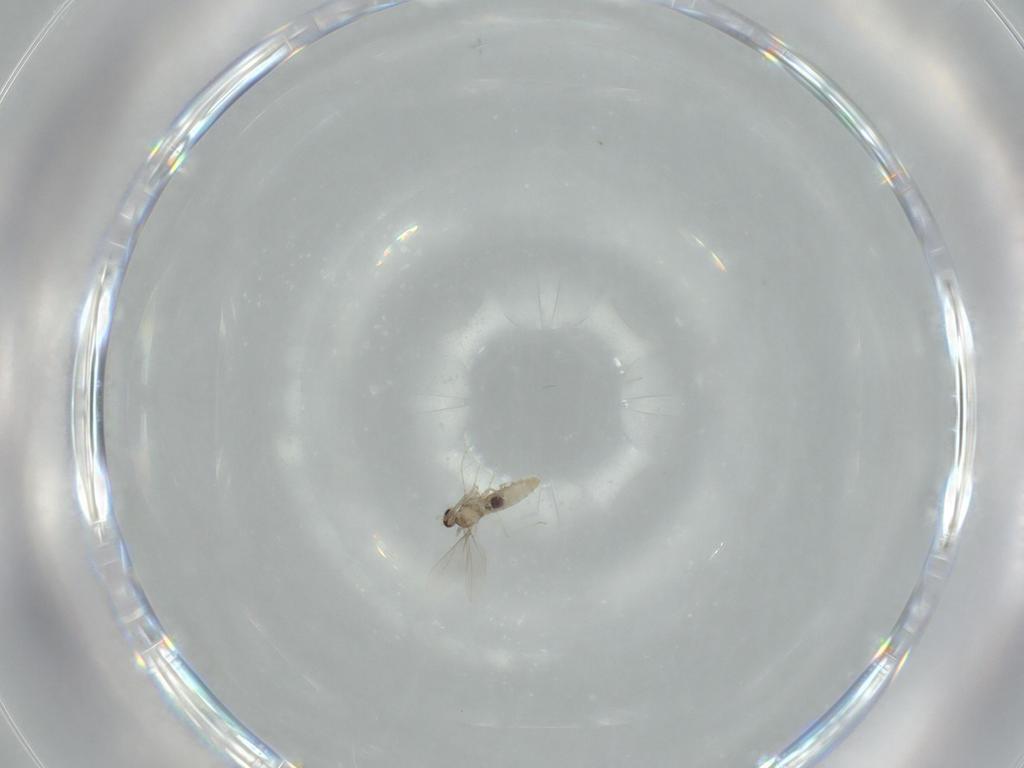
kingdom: Animalia
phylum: Arthropoda
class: Insecta
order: Diptera
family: Cecidomyiidae
